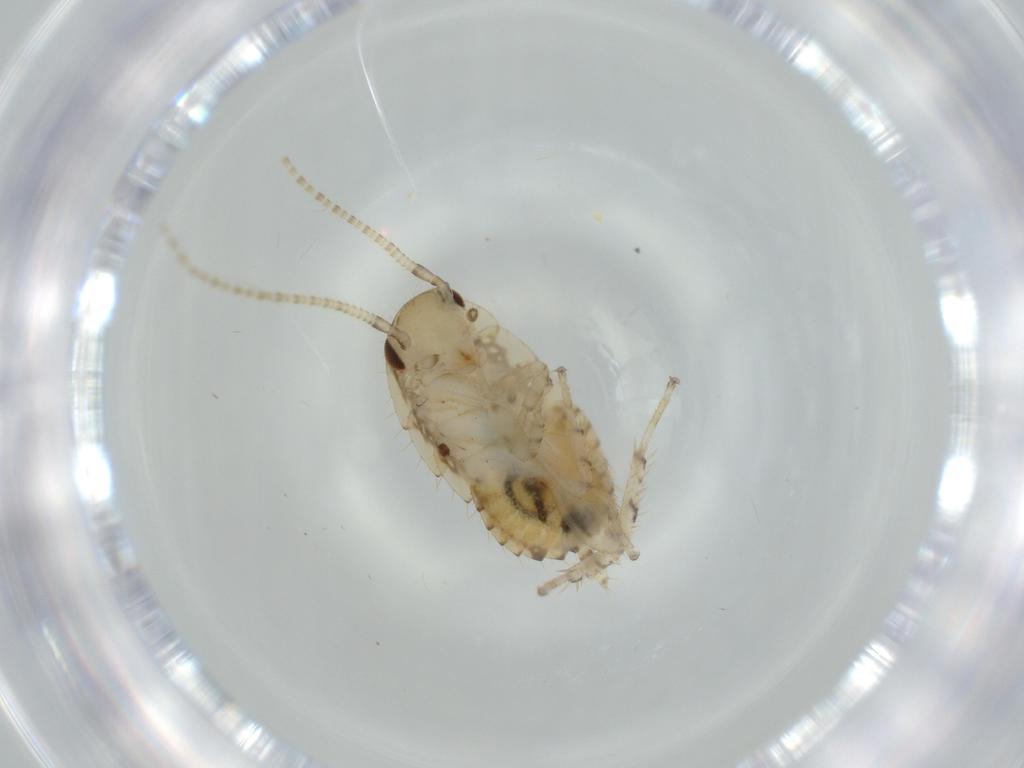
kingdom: Animalia
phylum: Arthropoda
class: Insecta
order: Blattodea
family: Ectobiidae
